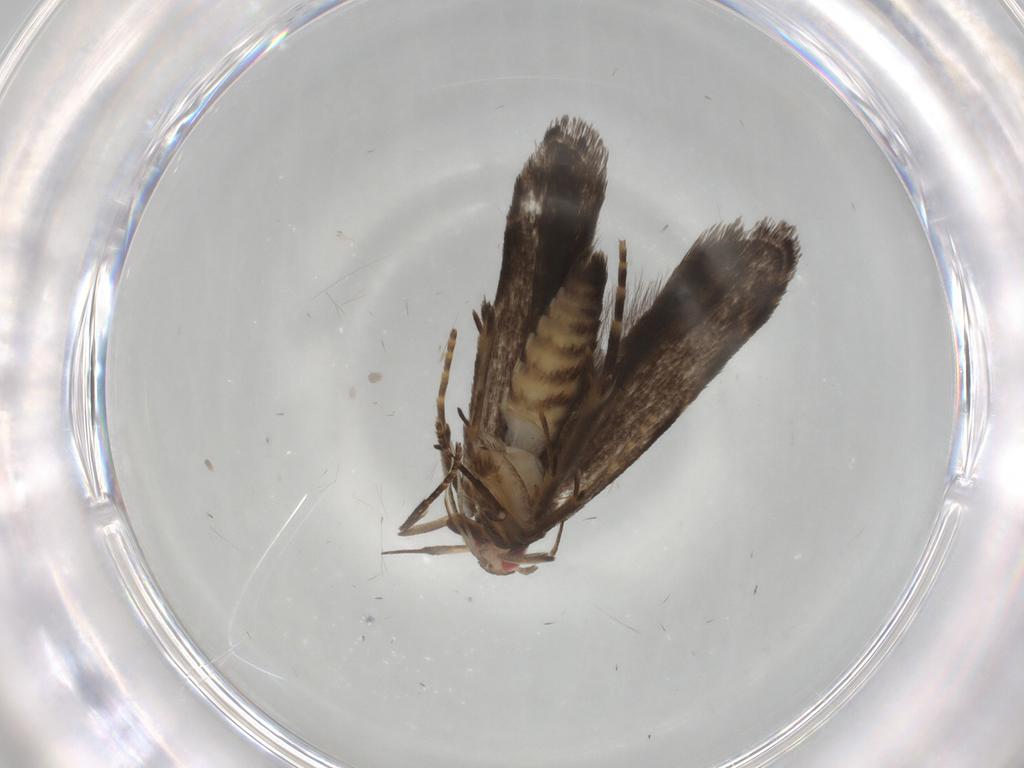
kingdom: Animalia
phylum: Arthropoda
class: Insecta
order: Lepidoptera
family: Gelechiidae
